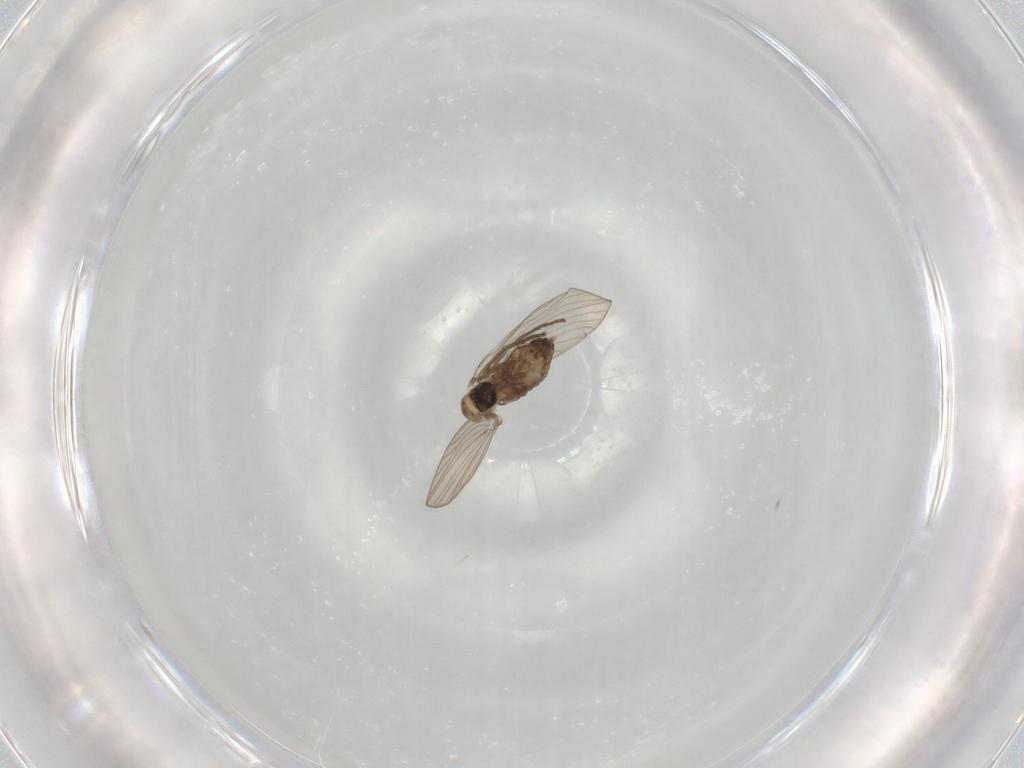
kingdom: Animalia
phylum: Arthropoda
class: Insecta
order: Diptera
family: Psychodidae
